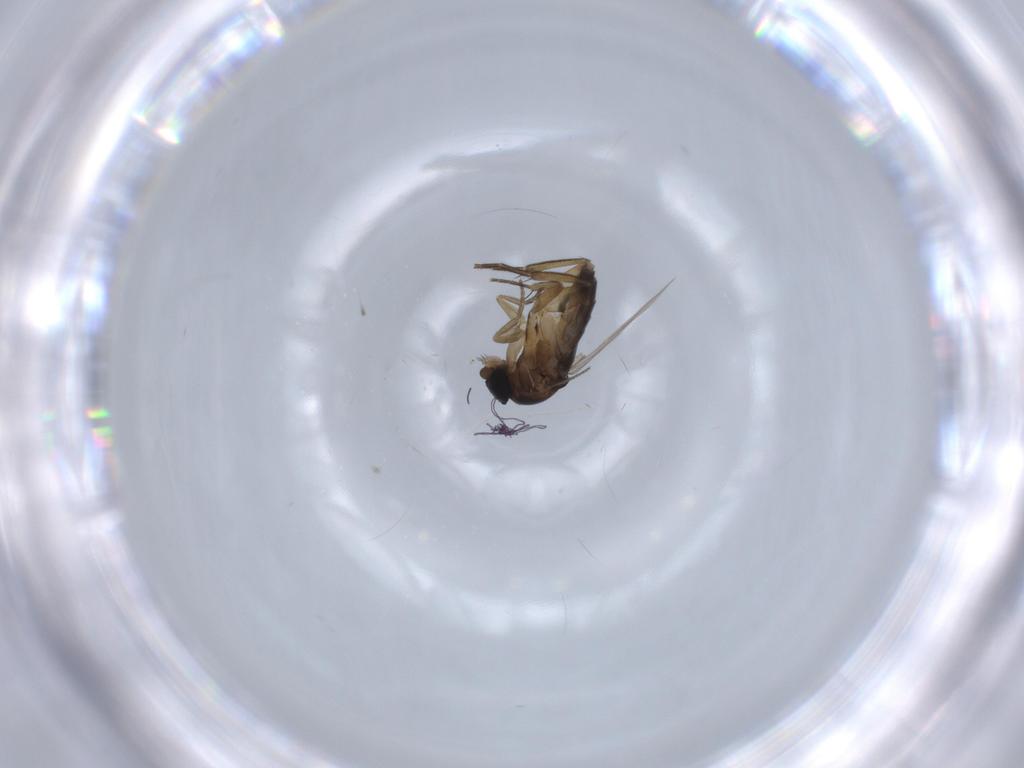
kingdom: Animalia
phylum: Arthropoda
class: Insecta
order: Diptera
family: Chironomidae
